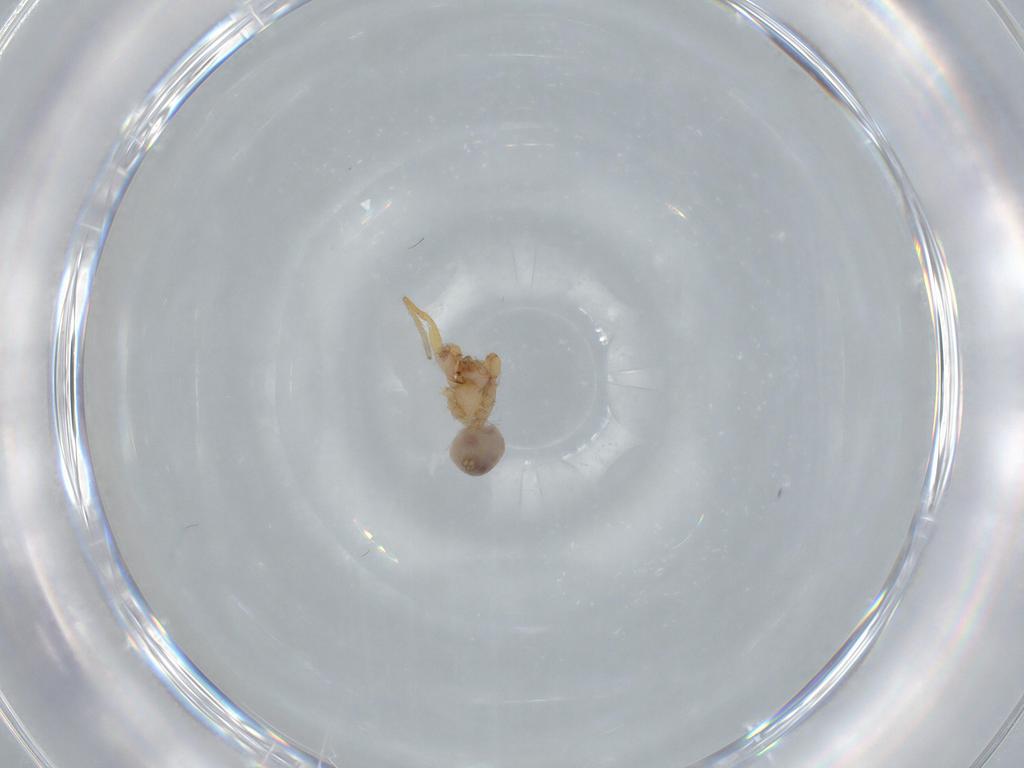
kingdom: Animalia
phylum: Arthropoda
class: Arachnida
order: Araneae
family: Oonopidae
